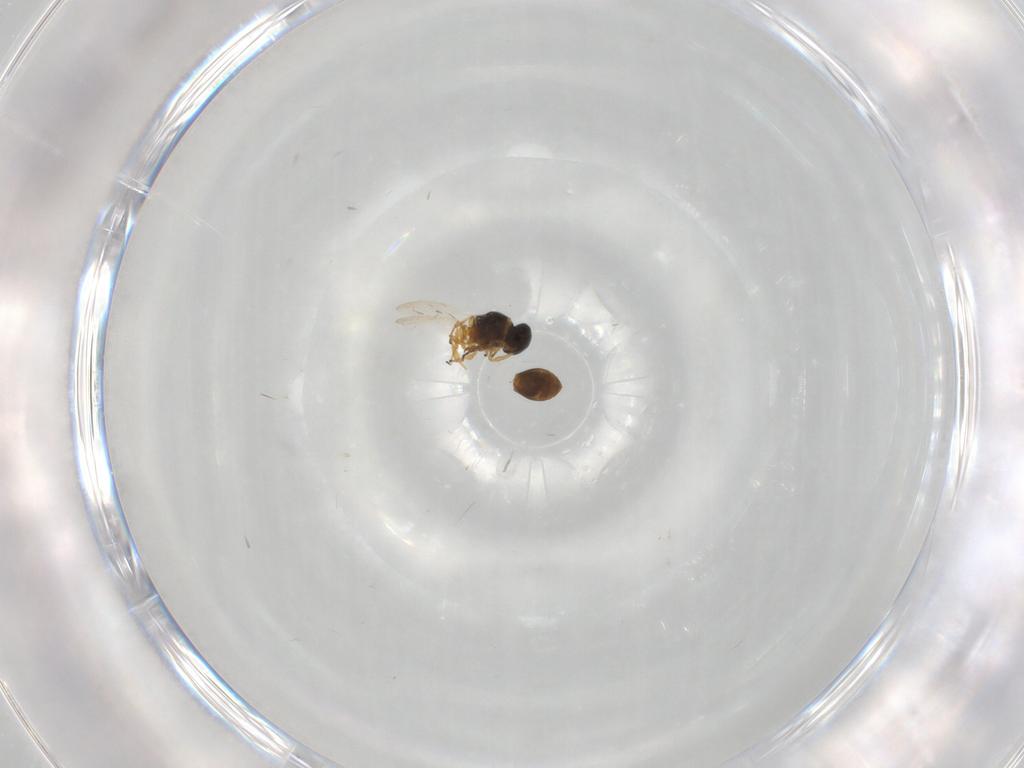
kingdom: Animalia
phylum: Arthropoda
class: Insecta
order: Hymenoptera
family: Platygastridae
